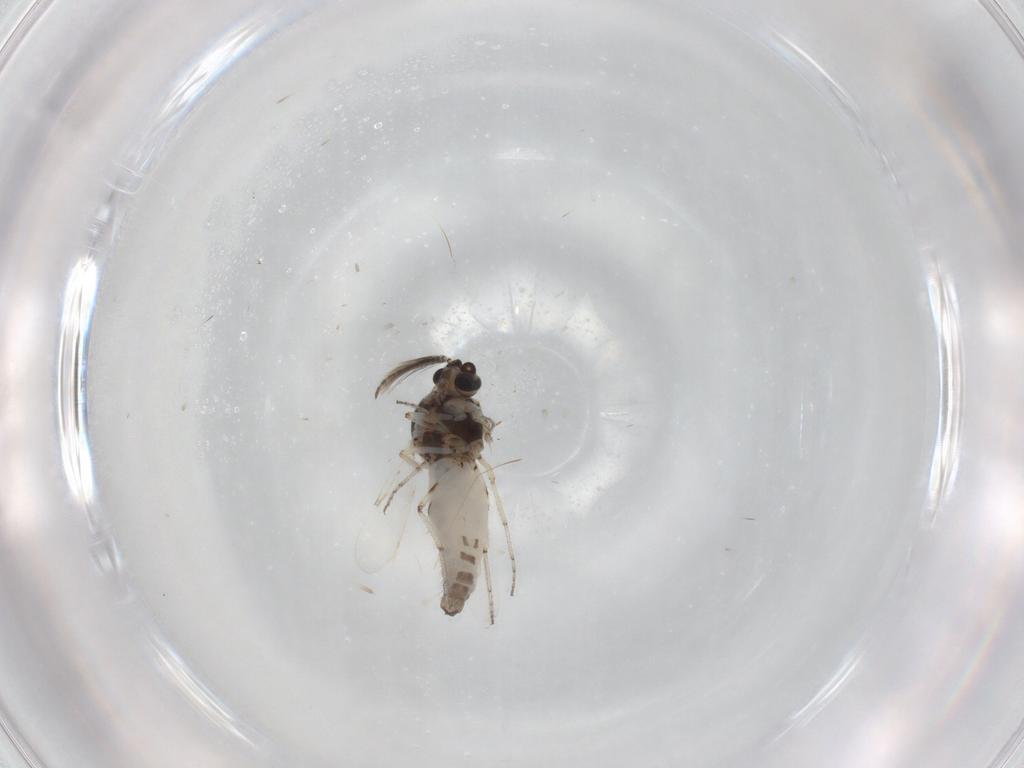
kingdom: Animalia
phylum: Arthropoda
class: Insecta
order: Diptera
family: Ceratopogonidae
